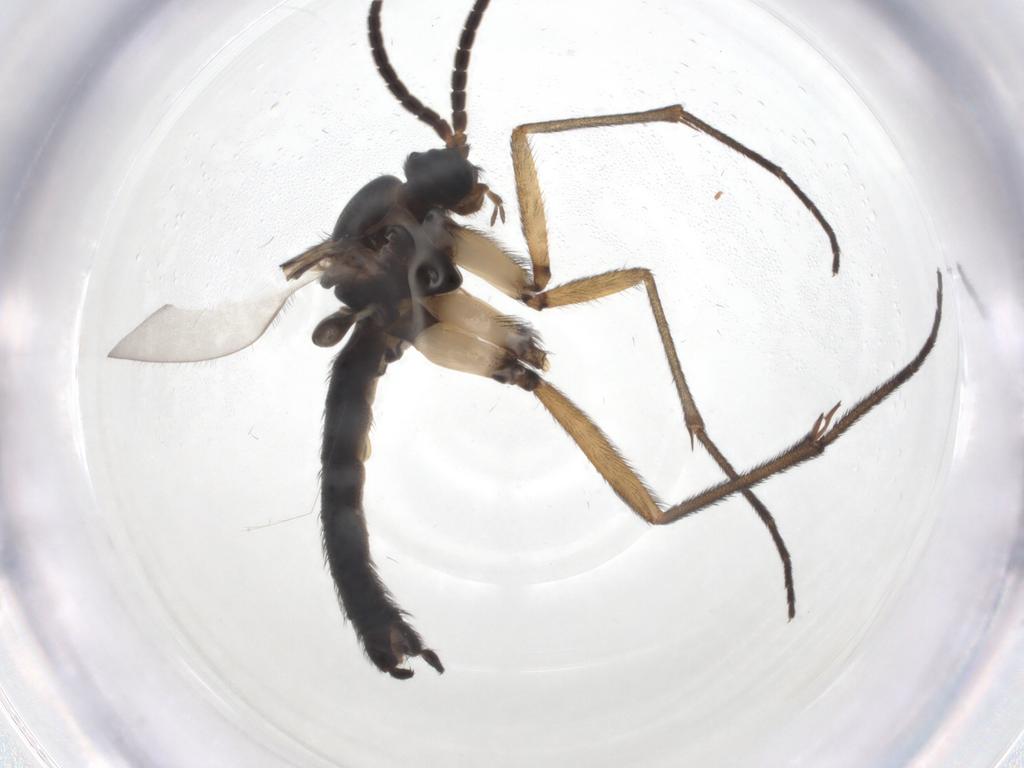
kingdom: Animalia
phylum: Arthropoda
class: Insecta
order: Diptera
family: Sciaridae
